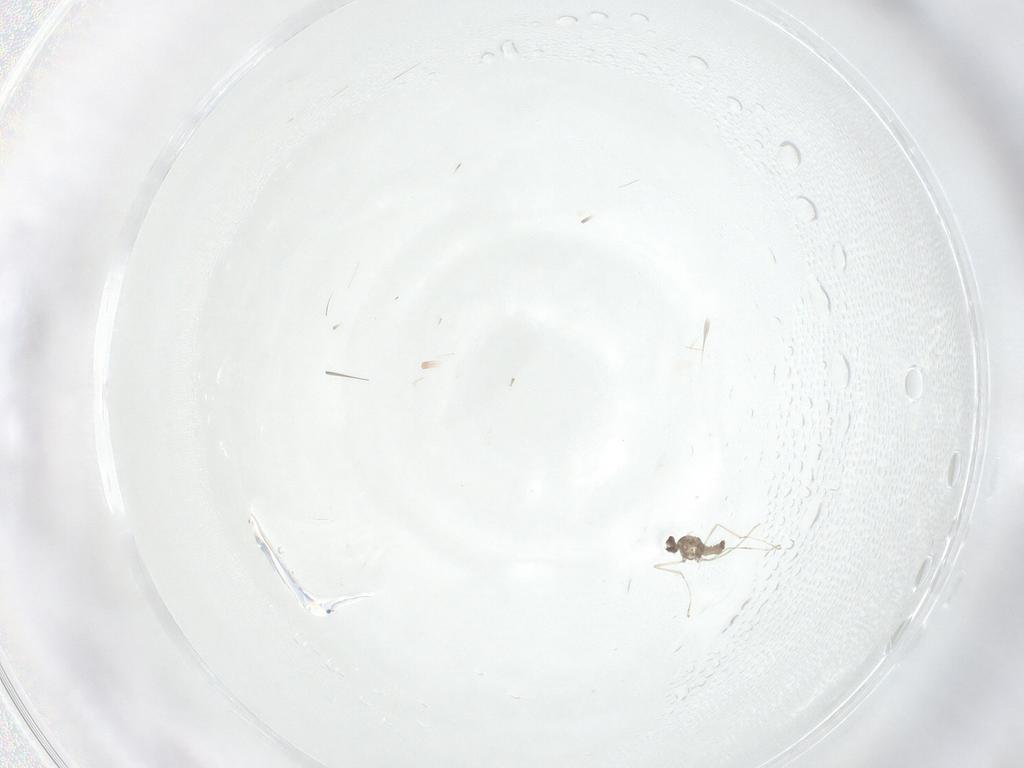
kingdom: Animalia
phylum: Arthropoda
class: Insecta
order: Diptera
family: Cecidomyiidae
